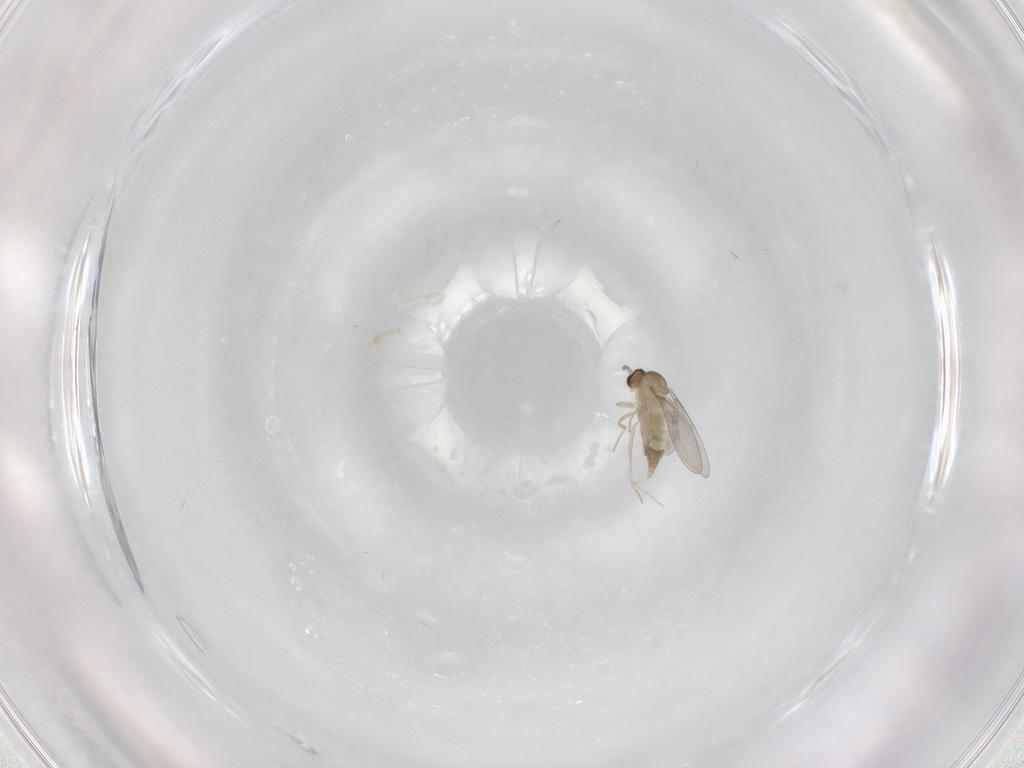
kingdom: Animalia
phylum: Arthropoda
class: Insecta
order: Diptera
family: Cecidomyiidae
